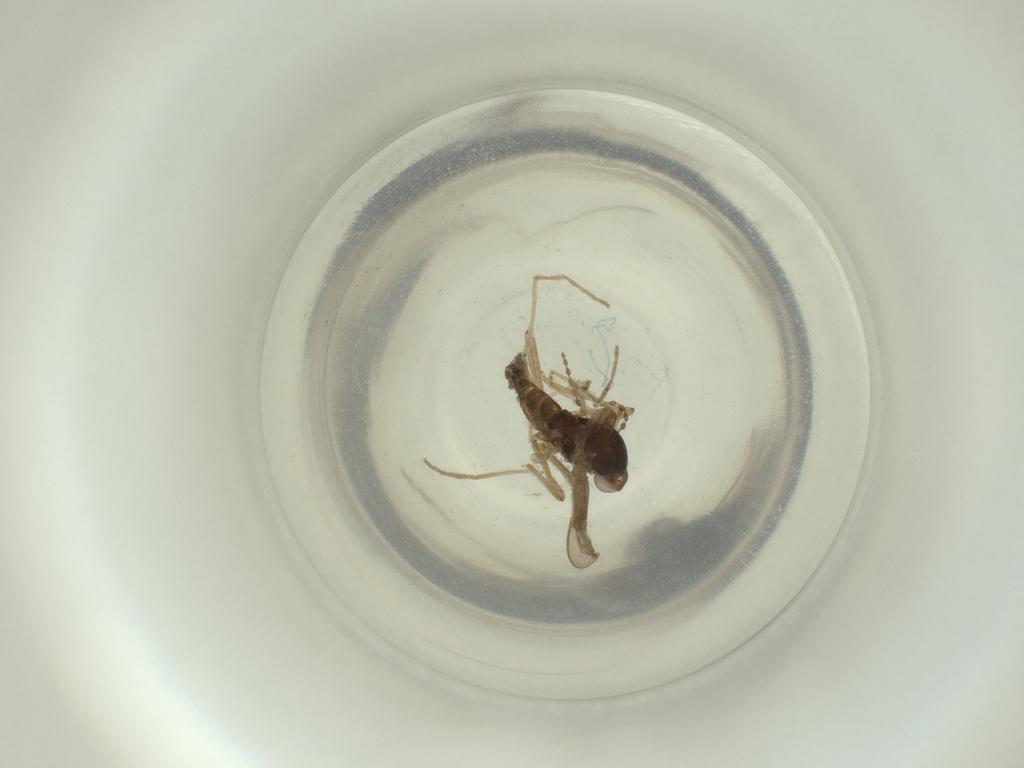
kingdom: Animalia
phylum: Arthropoda
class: Insecta
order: Diptera
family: Cecidomyiidae
